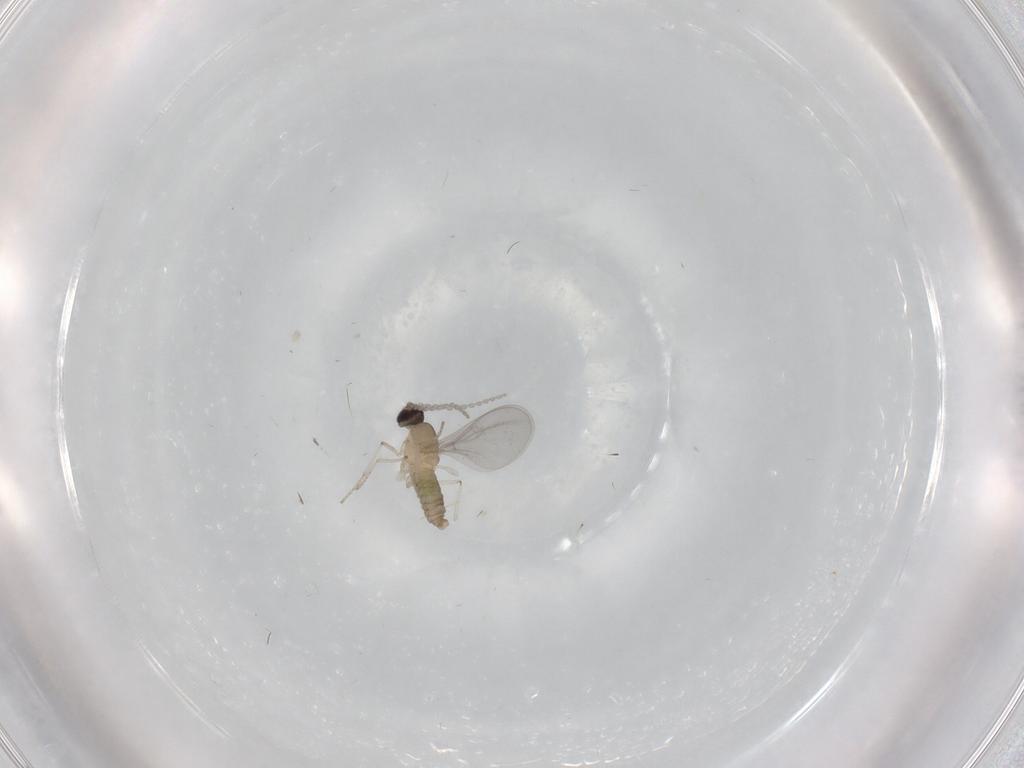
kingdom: Animalia
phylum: Arthropoda
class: Insecta
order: Diptera
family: Cecidomyiidae
